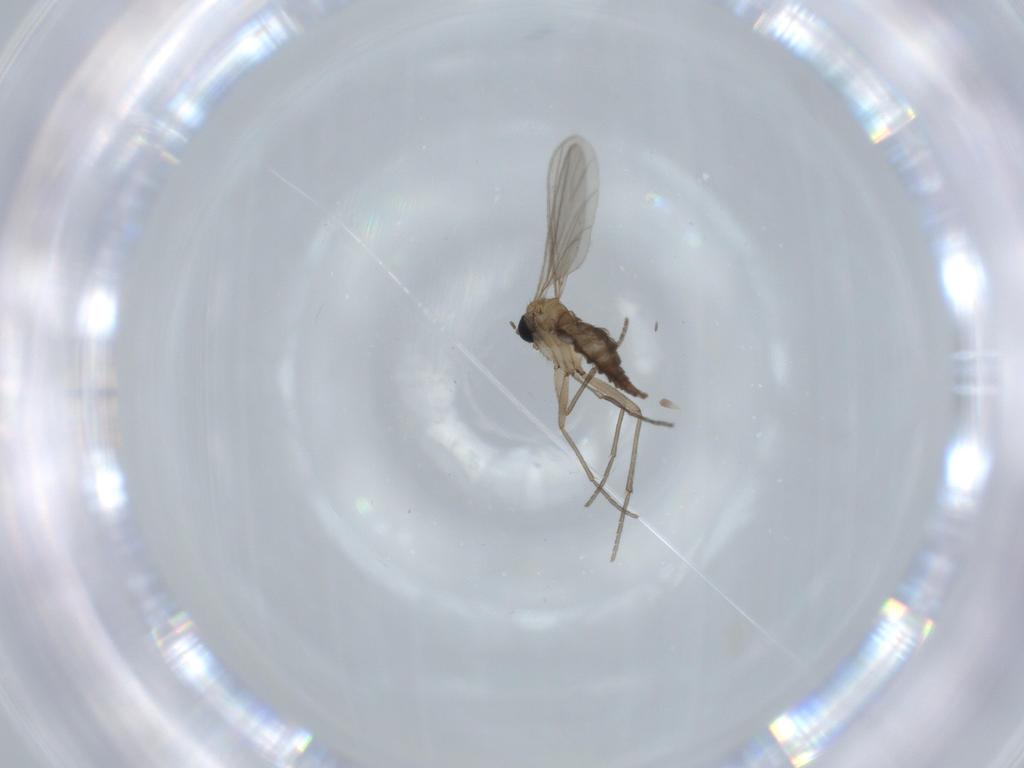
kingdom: Animalia
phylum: Arthropoda
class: Insecta
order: Diptera
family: Sciaridae
